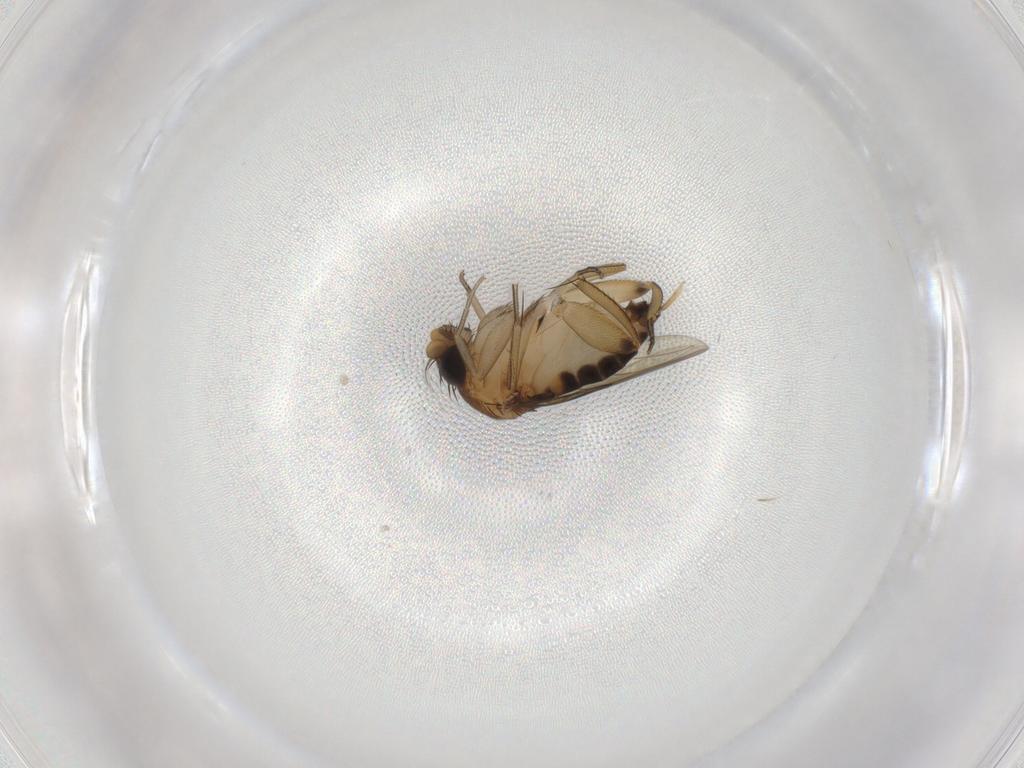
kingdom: Animalia
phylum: Arthropoda
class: Insecta
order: Diptera
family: Phoridae
